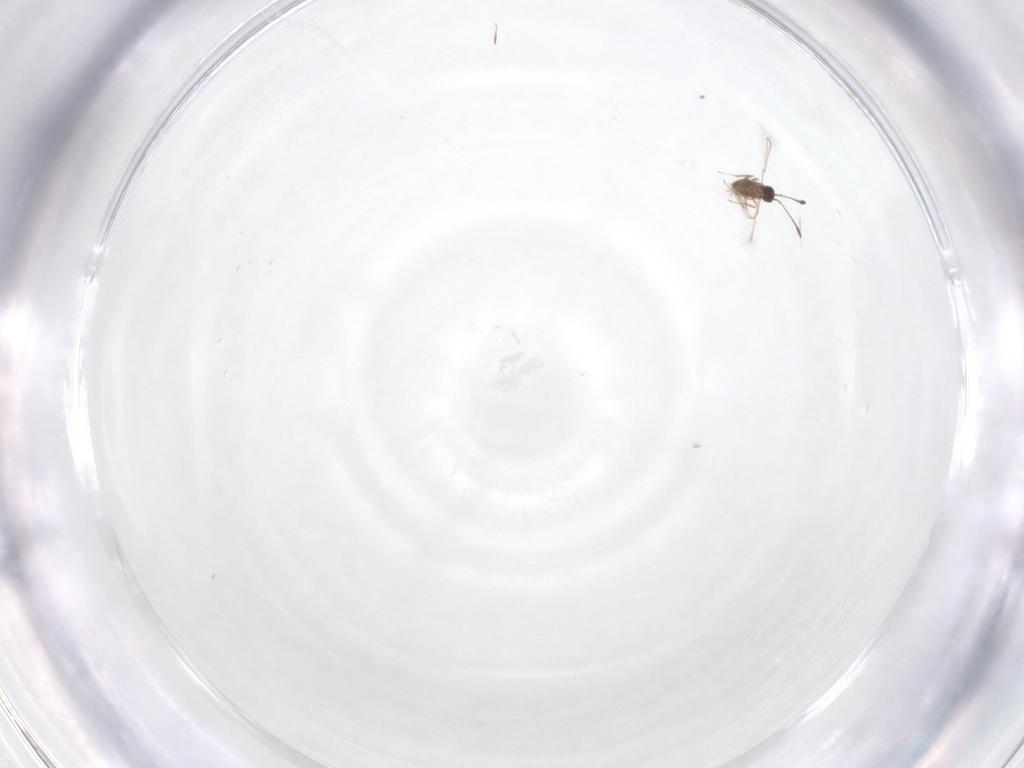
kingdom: Animalia
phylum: Arthropoda
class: Insecta
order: Hymenoptera
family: Mymaridae
